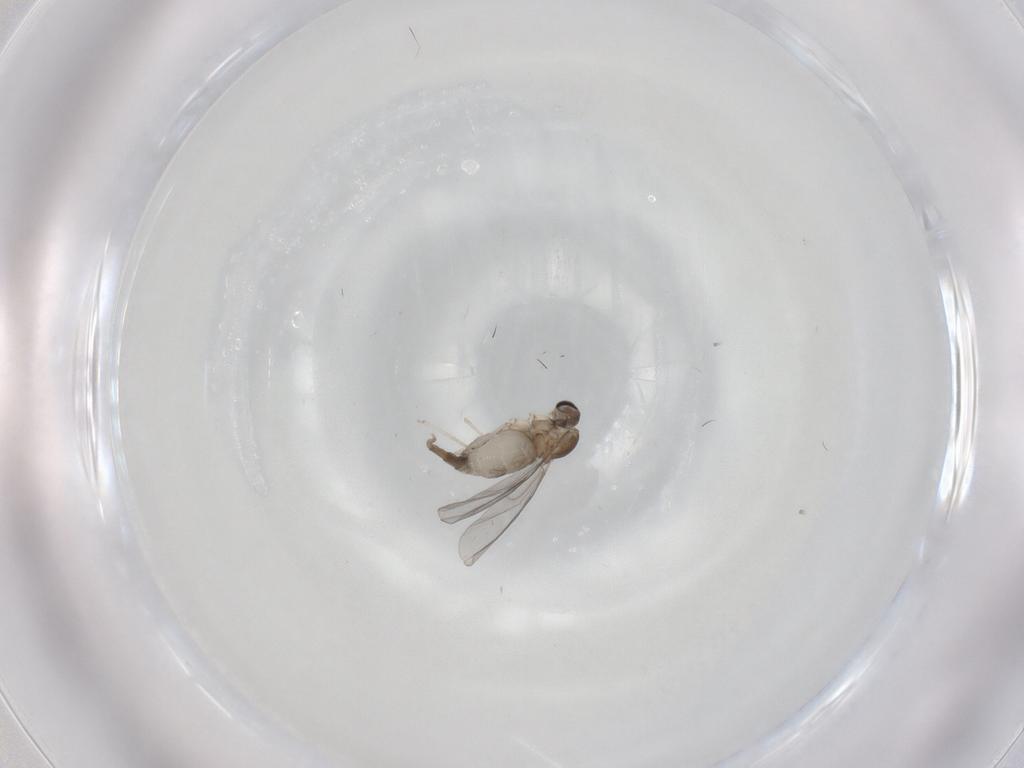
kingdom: Animalia
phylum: Arthropoda
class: Insecta
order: Diptera
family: Cecidomyiidae
